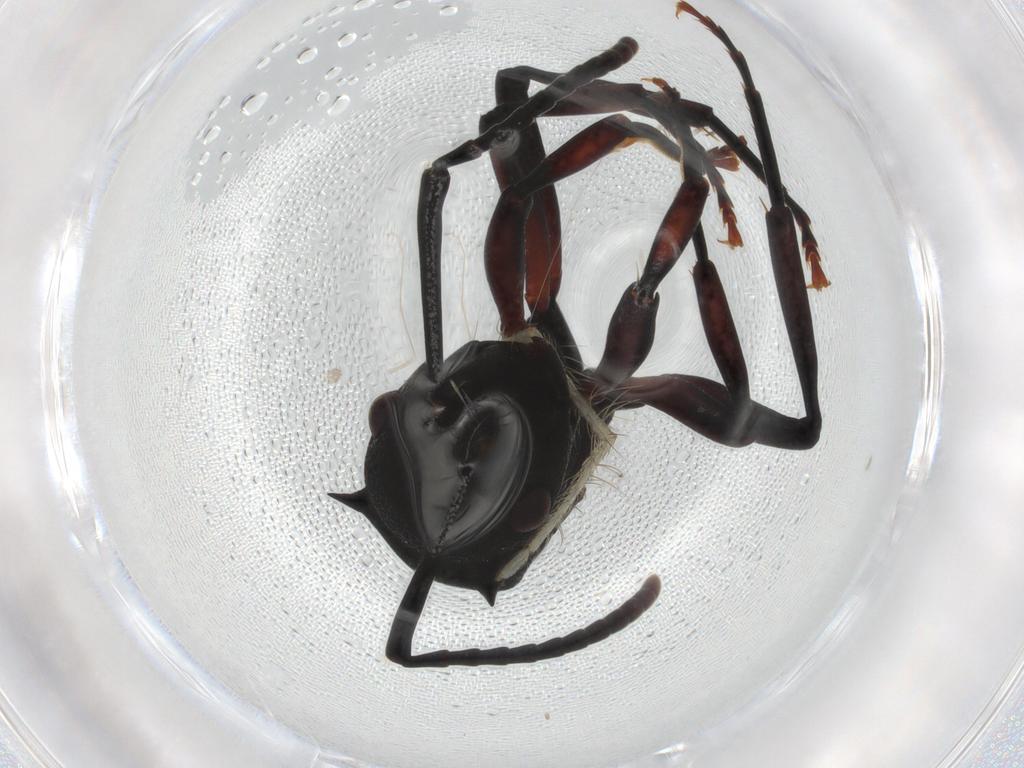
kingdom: Animalia
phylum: Arthropoda
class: Insecta
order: Hymenoptera
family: Formicidae
